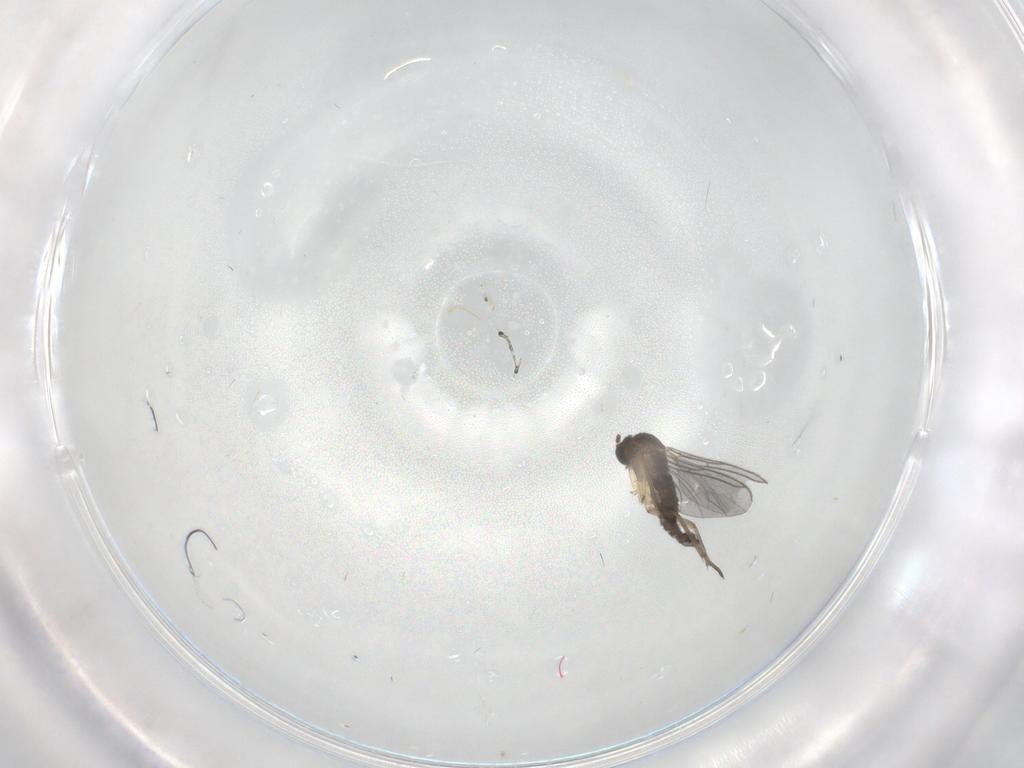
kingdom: Animalia
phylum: Arthropoda
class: Insecta
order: Diptera
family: Sciaridae
